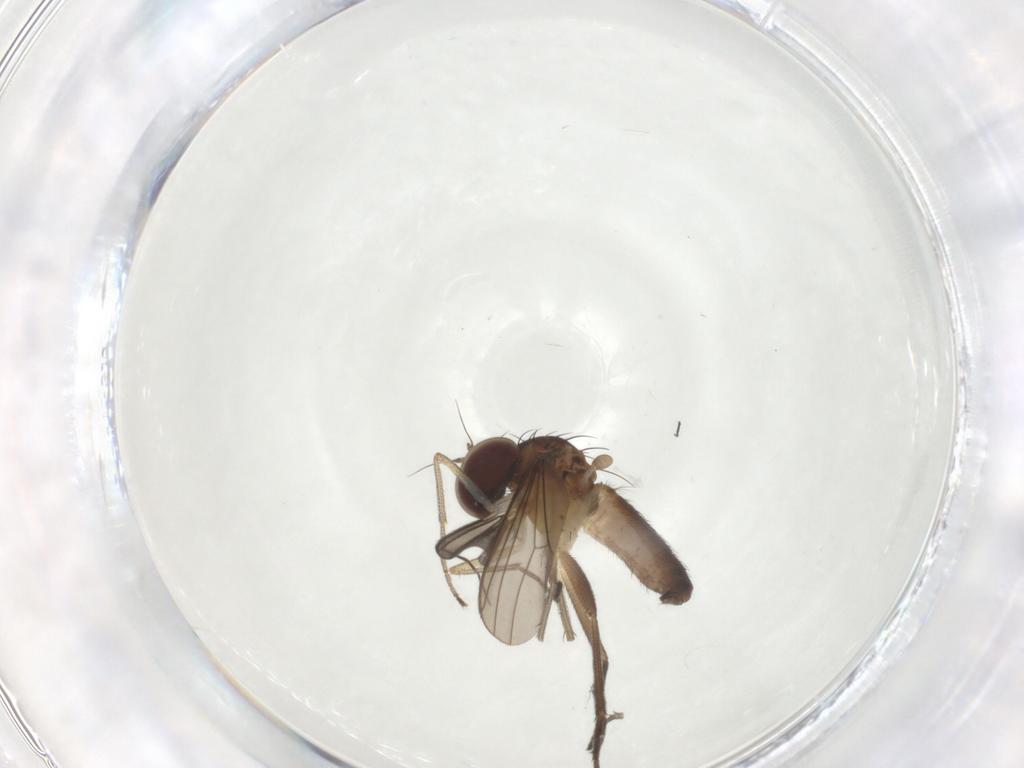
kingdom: Animalia
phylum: Arthropoda
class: Insecta
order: Diptera
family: Dolichopodidae
